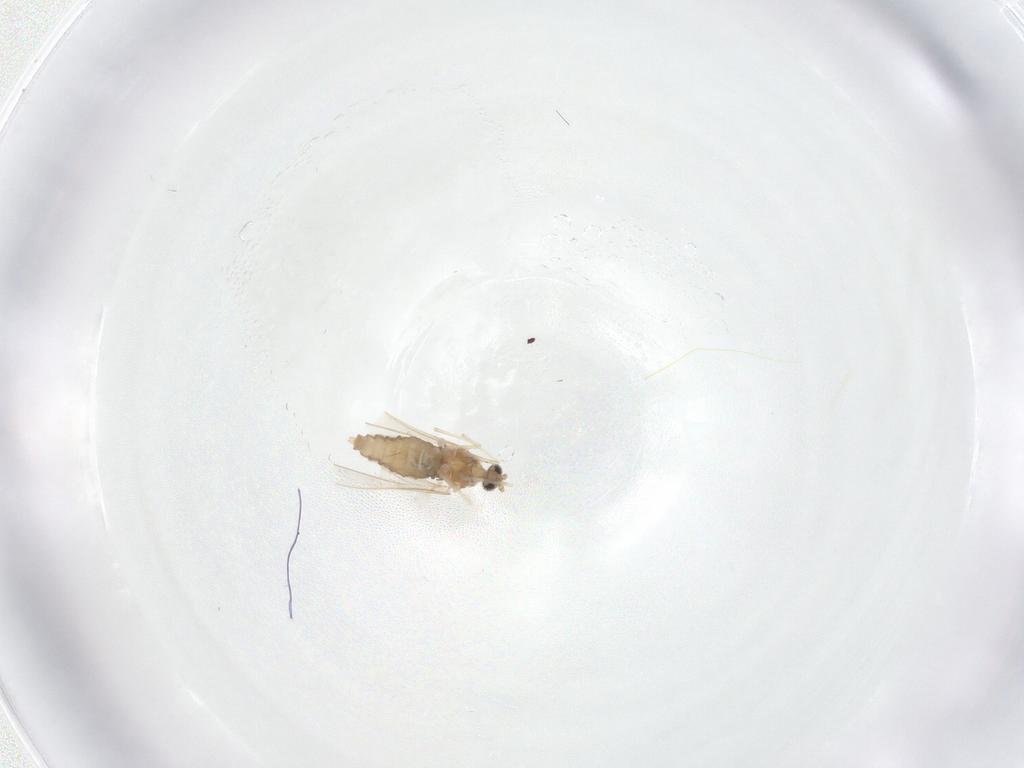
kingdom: Animalia
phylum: Arthropoda
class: Insecta
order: Diptera
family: Cecidomyiidae
